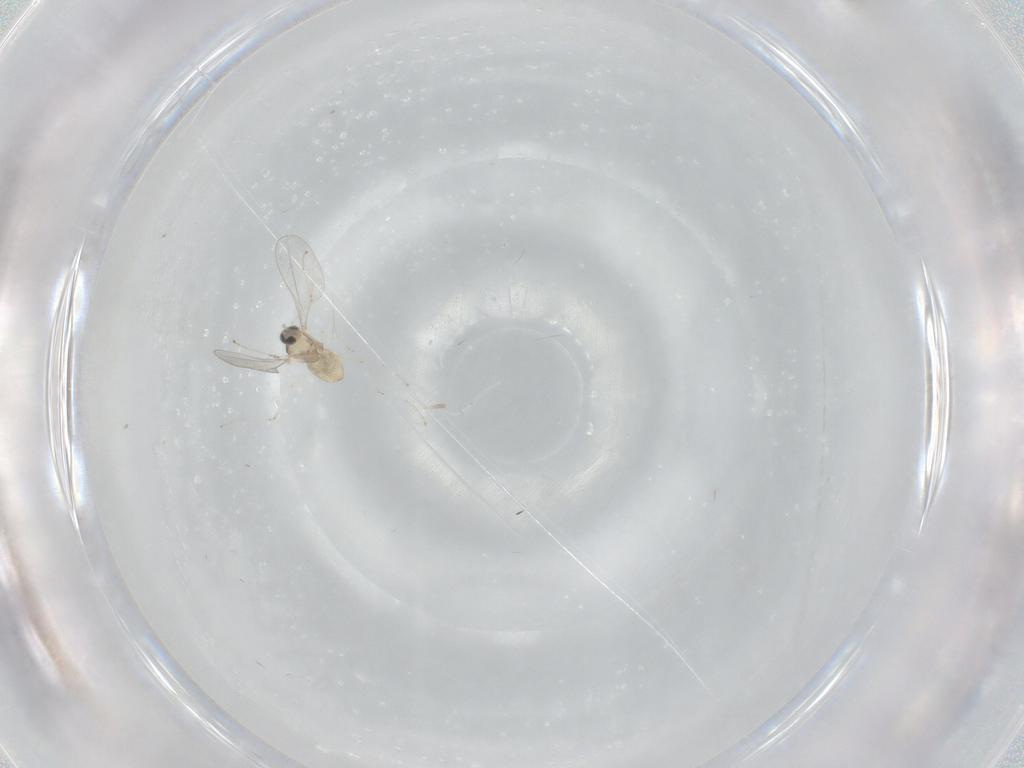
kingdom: Animalia
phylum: Arthropoda
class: Insecta
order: Diptera
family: Cecidomyiidae
